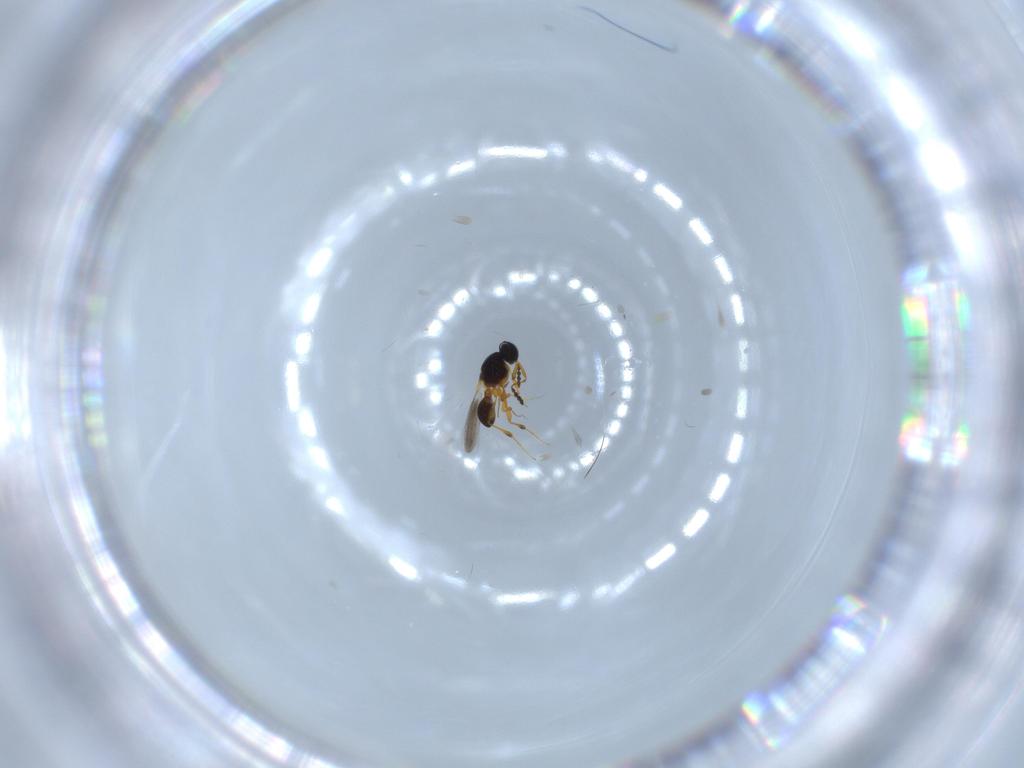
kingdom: Animalia
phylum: Arthropoda
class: Insecta
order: Hymenoptera
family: Platygastridae
